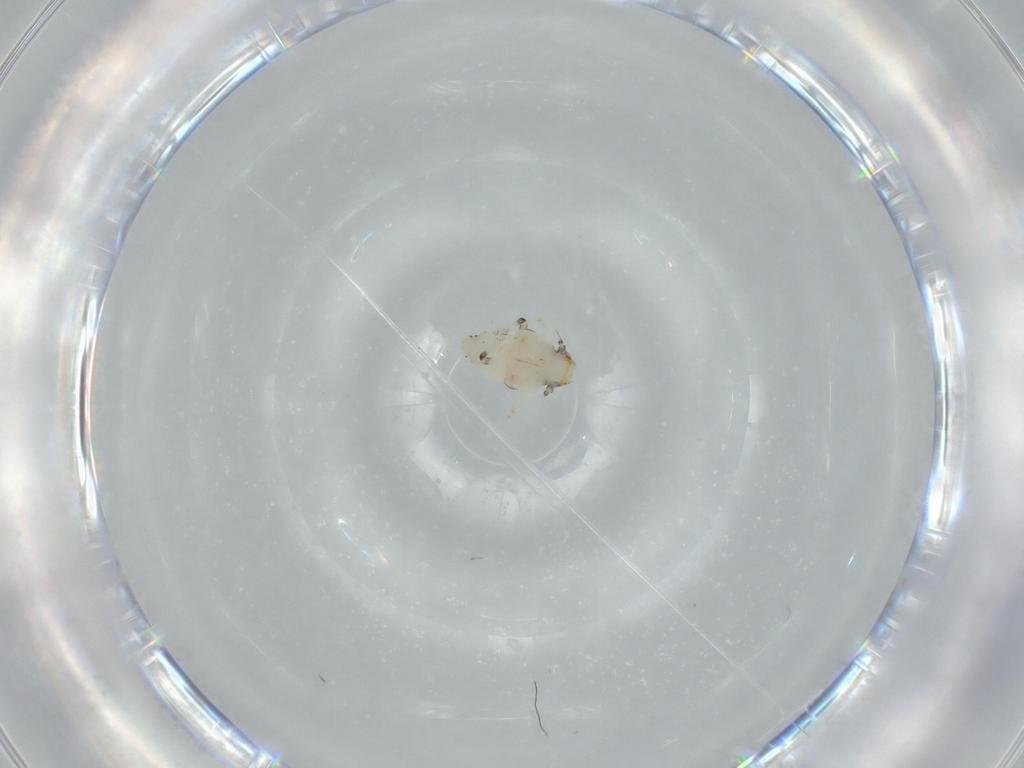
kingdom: Animalia
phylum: Arthropoda
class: Insecta
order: Hemiptera
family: Nogodinidae
